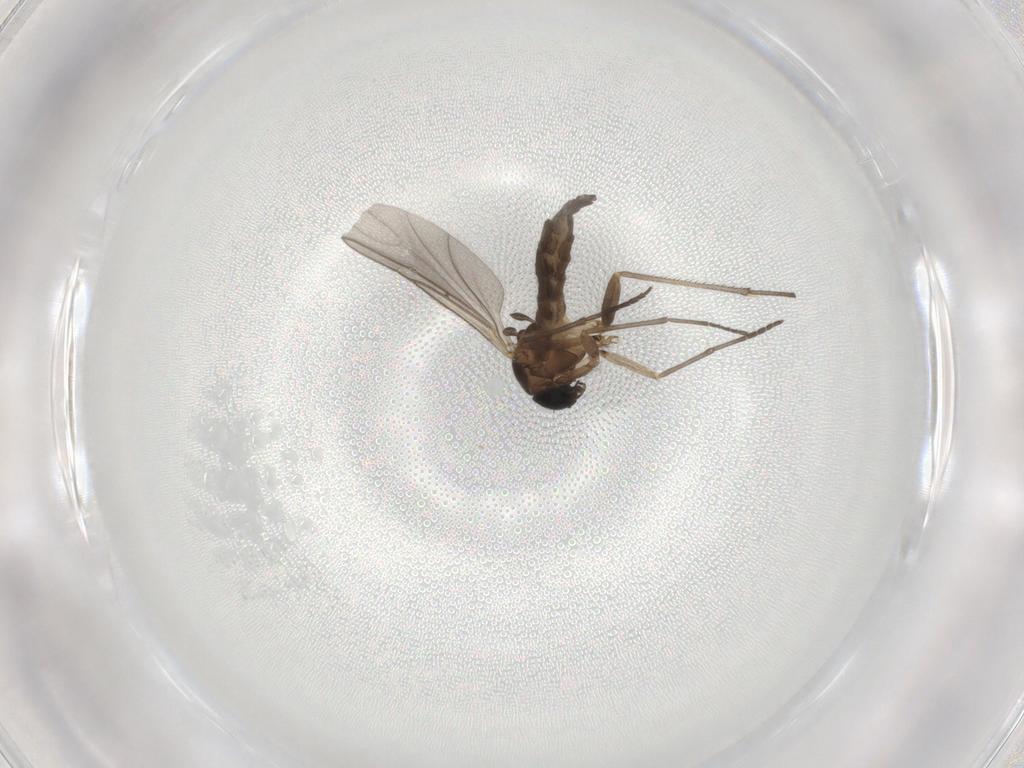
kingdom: Animalia
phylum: Arthropoda
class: Insecta
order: Diptera
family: Sciaridae
